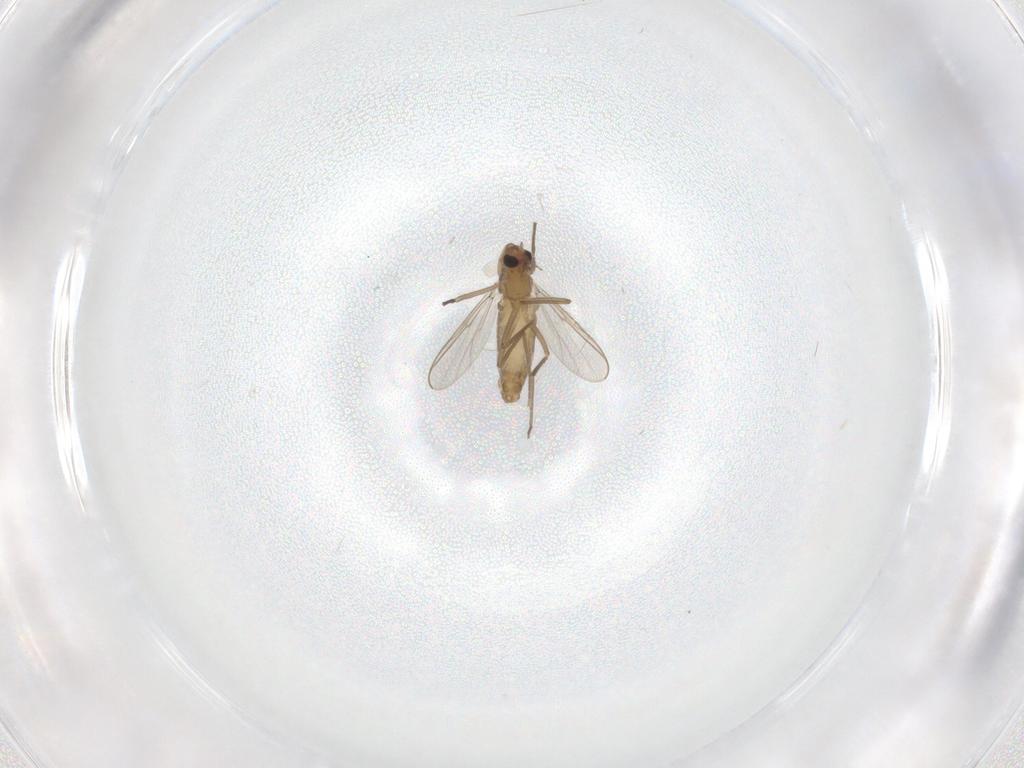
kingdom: Animalia
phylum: Arthropoda
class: Insecta
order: Diptera
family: Chironomidae
